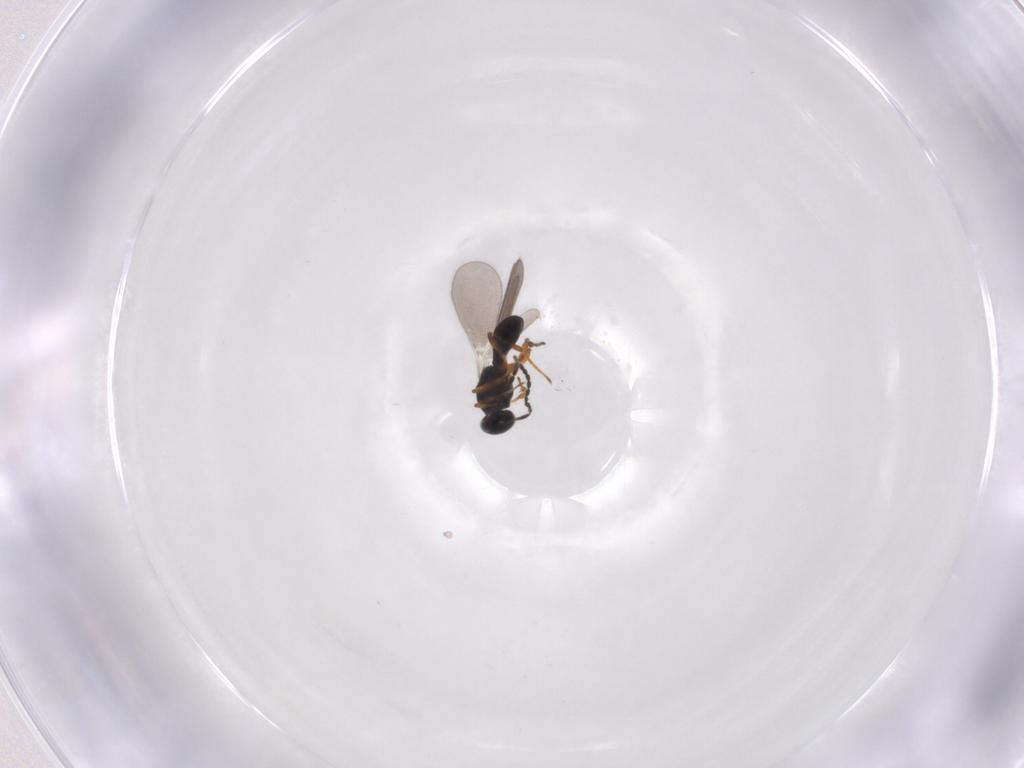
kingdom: Animalia
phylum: Arthropoda
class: Insecta
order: Hymenoptera
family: Platygastridae
